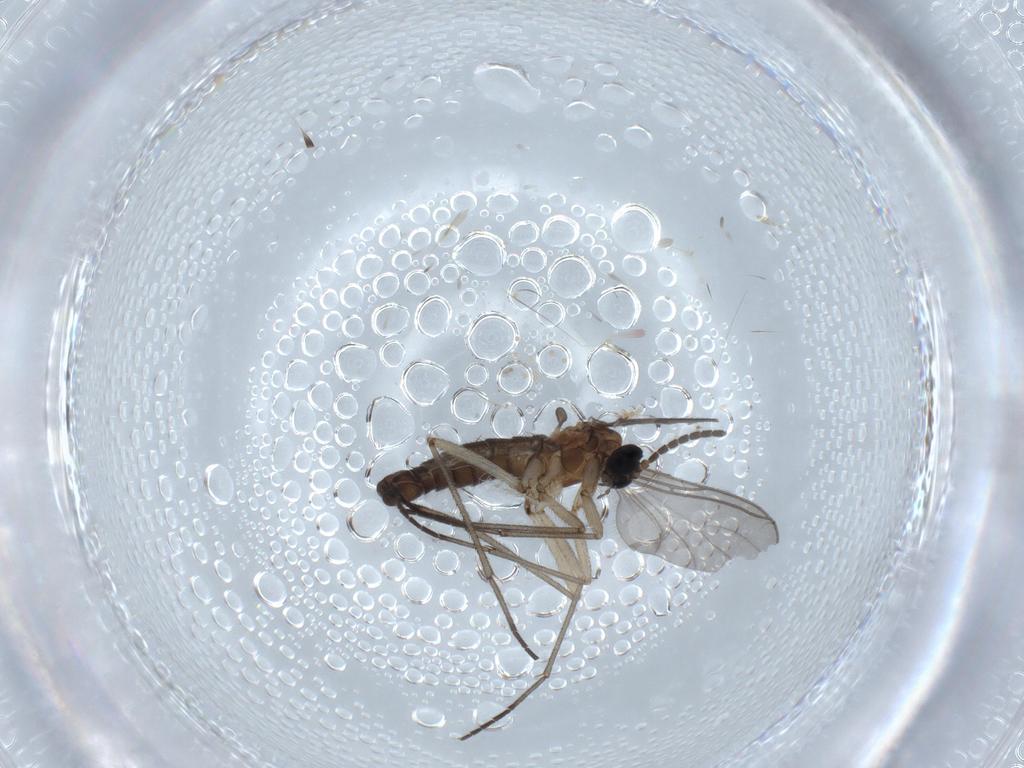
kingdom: Animalia
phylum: Arthropoda
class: Insecta
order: Diptera
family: Sciaridae
